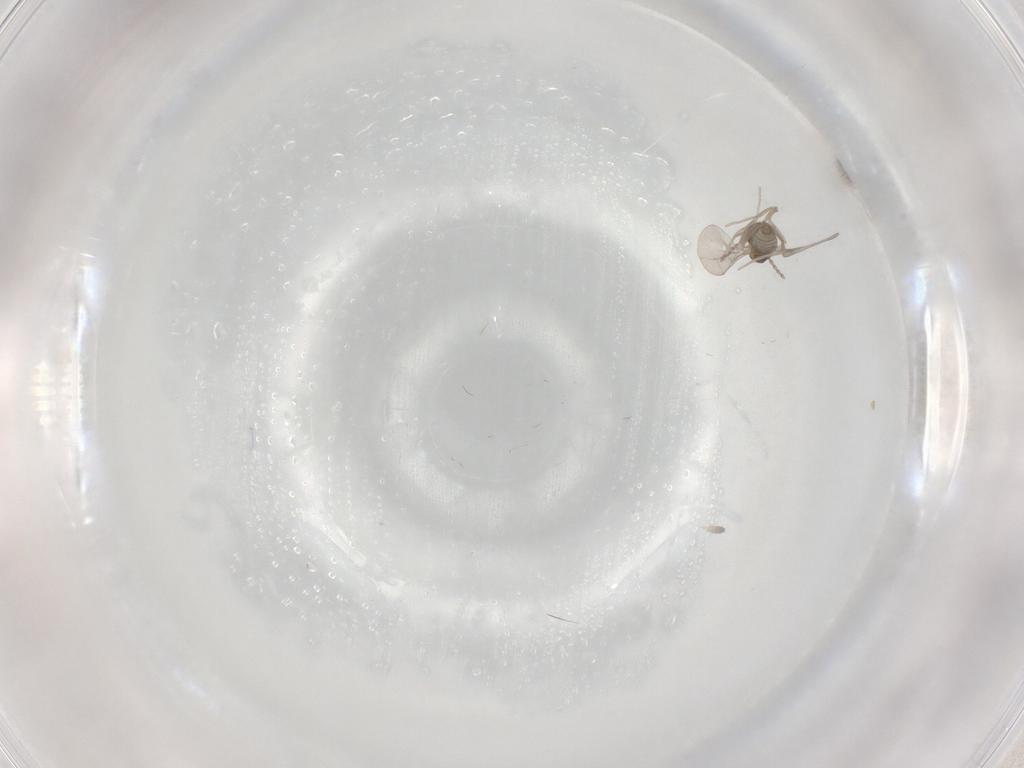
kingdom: Animalia
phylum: Arthropoda
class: Insecta
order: Diptera
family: Cecidomyiidae
